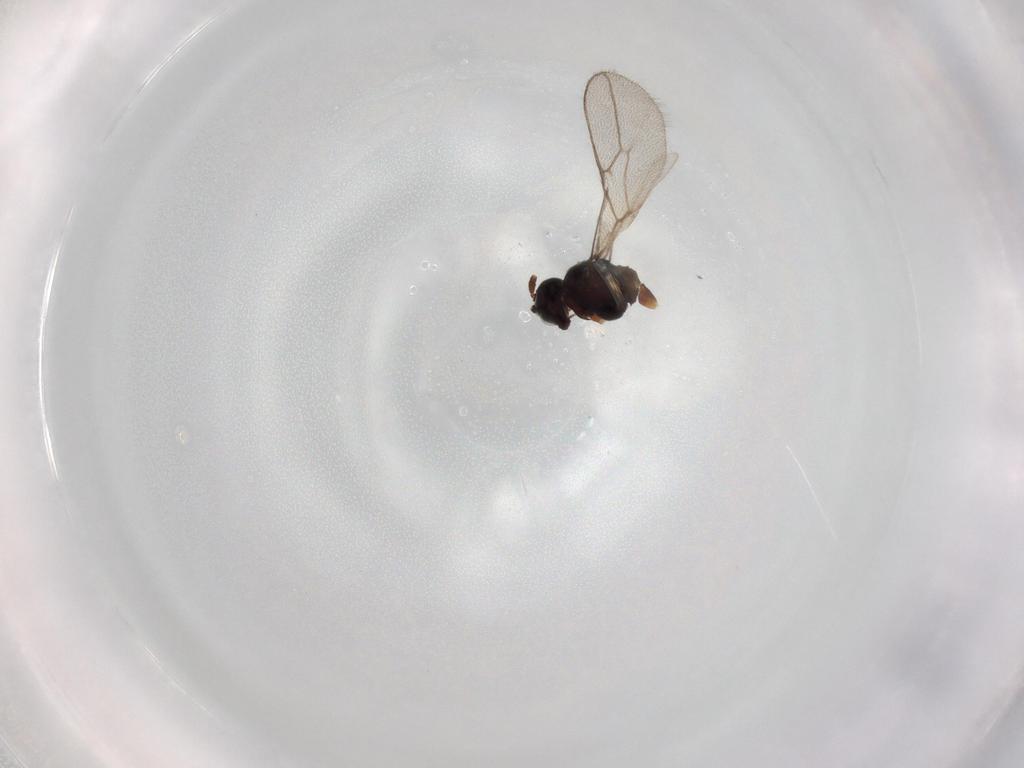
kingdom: Animalia
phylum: Arthropoda
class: Insecta
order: Hymenoptera
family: Braconidae
